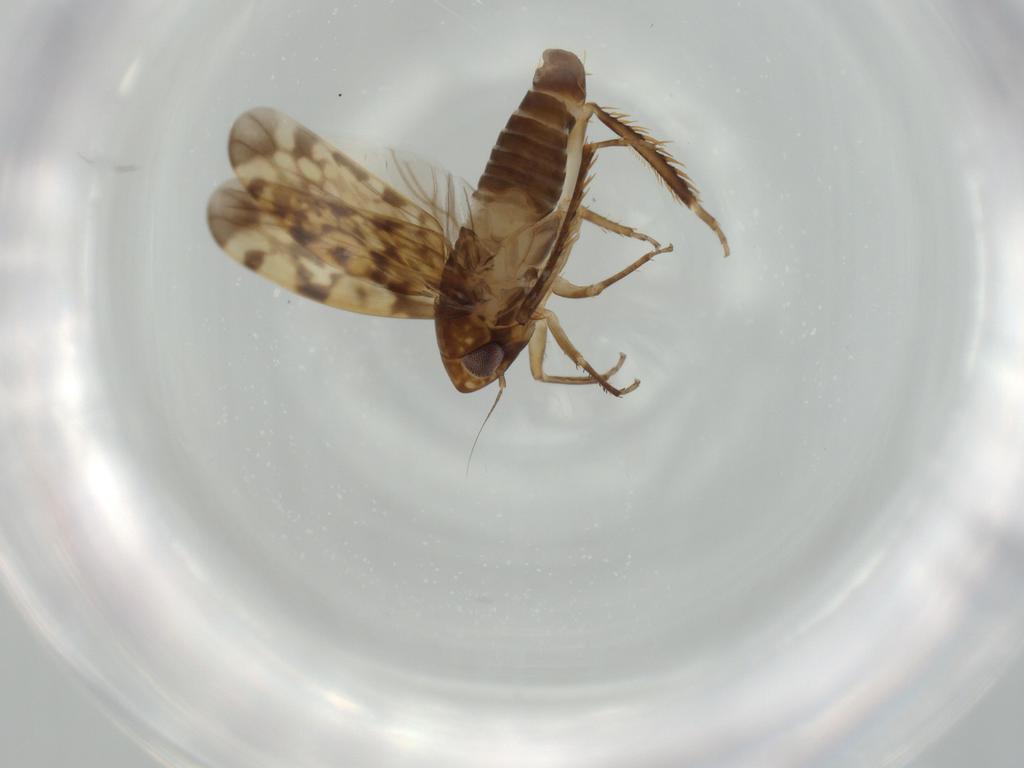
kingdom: Animalia
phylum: Arthropoda
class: Insecta
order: Hemiptera
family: Cicadellidae
